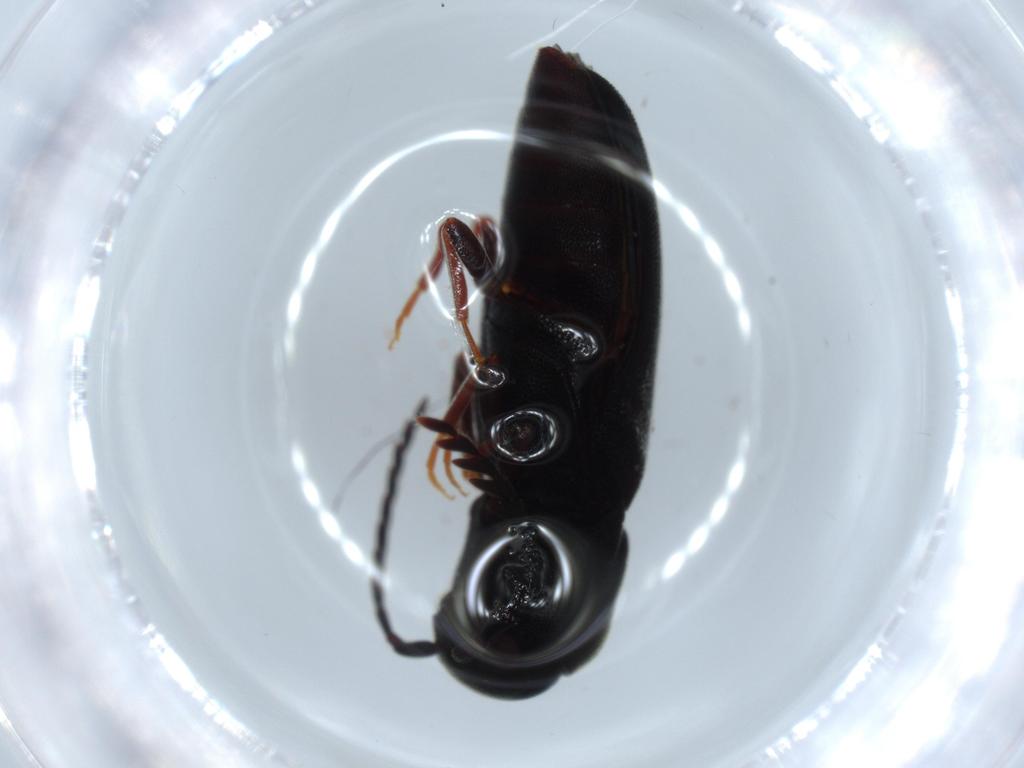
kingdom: Animalia
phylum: Arthropoda
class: Insecta
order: Coleoptera
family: Eucnemidae
